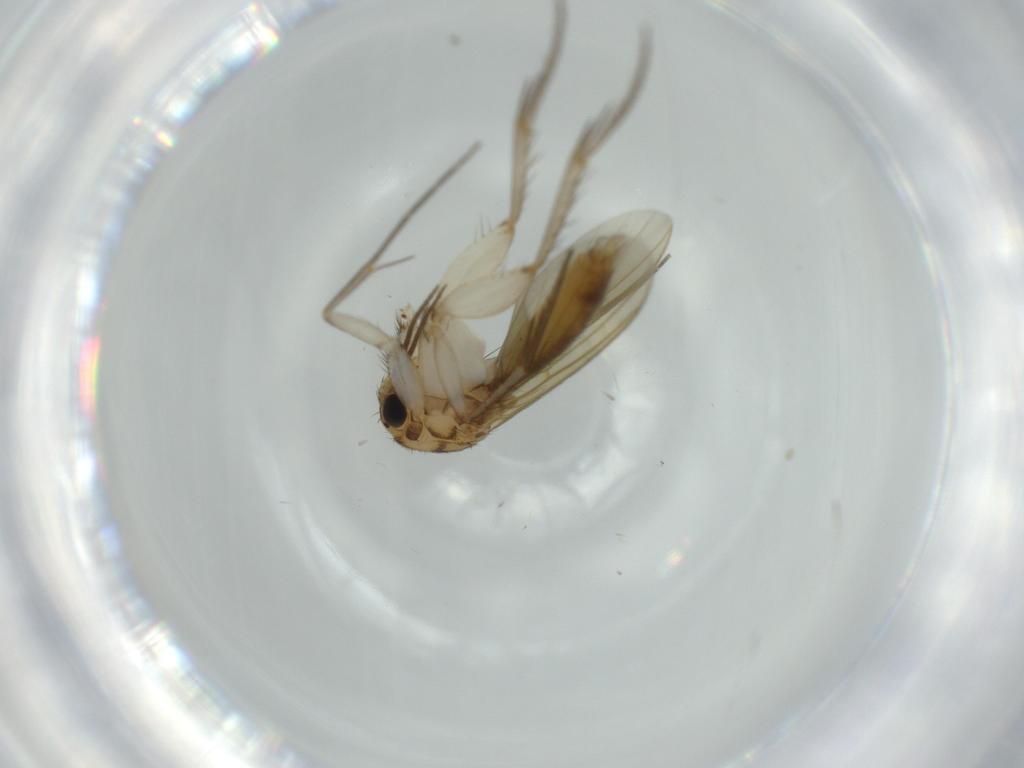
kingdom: Animalia
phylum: Arthropoda
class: Insecta
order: Diptera
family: Mycetophilidae
